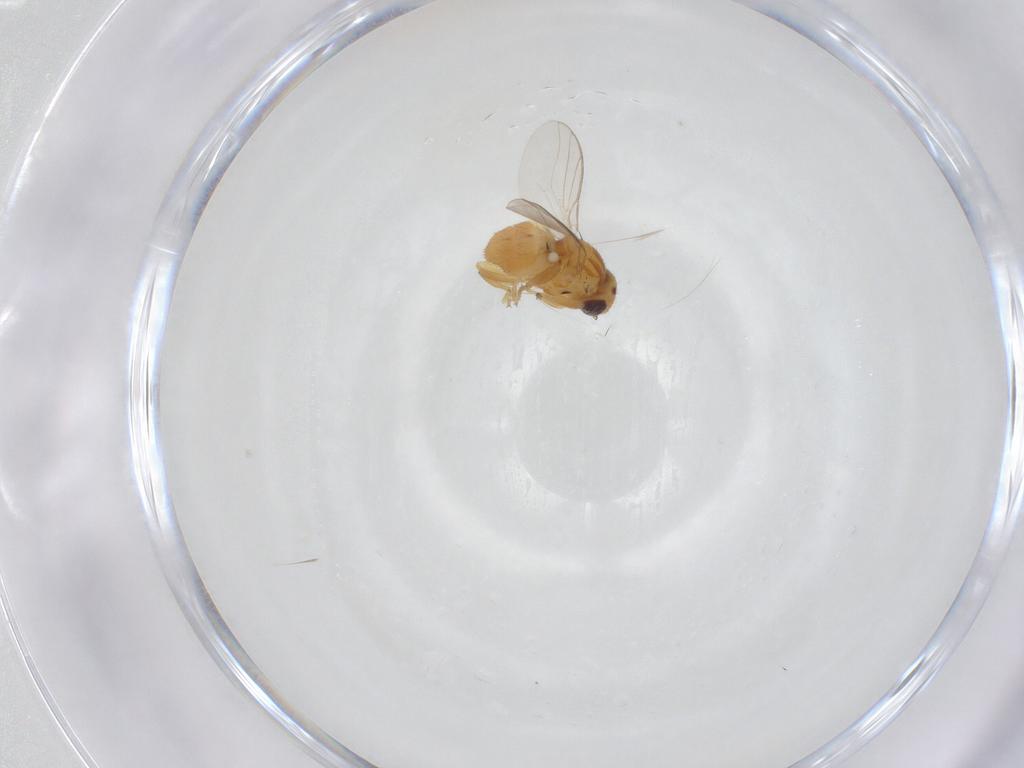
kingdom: Animalia
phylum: Arthropoda
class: Insecta
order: Diptera
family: Chloropidae
